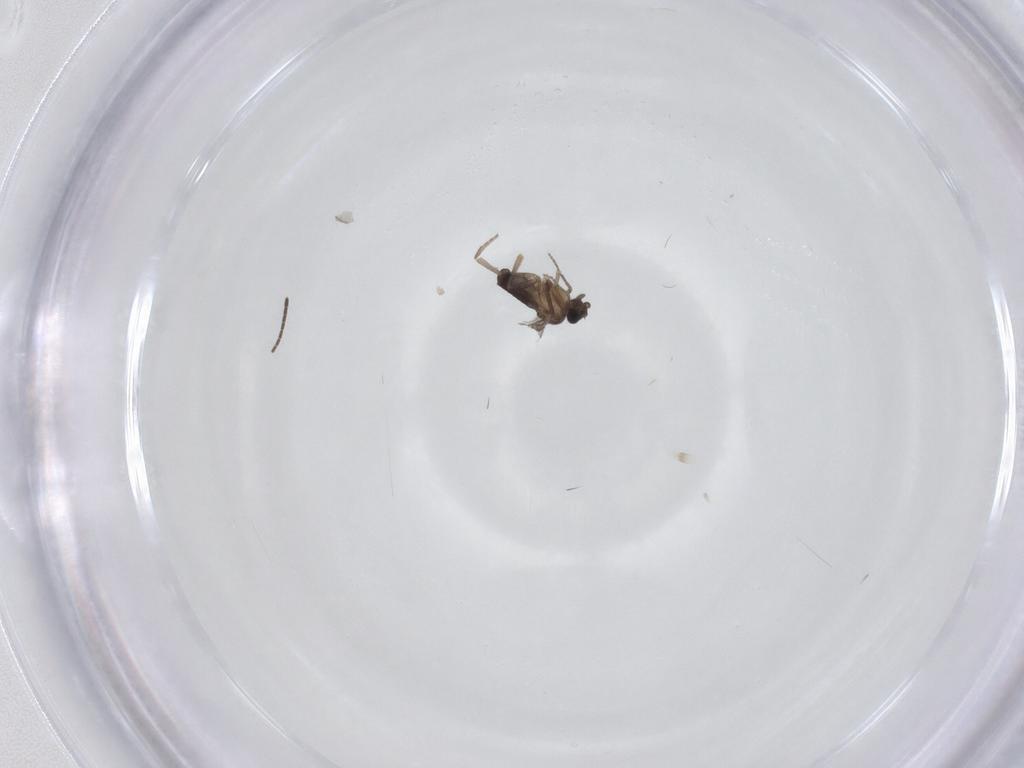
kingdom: Animalia
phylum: Arthropoda
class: Insecta
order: Diptera
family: Sciaridae
